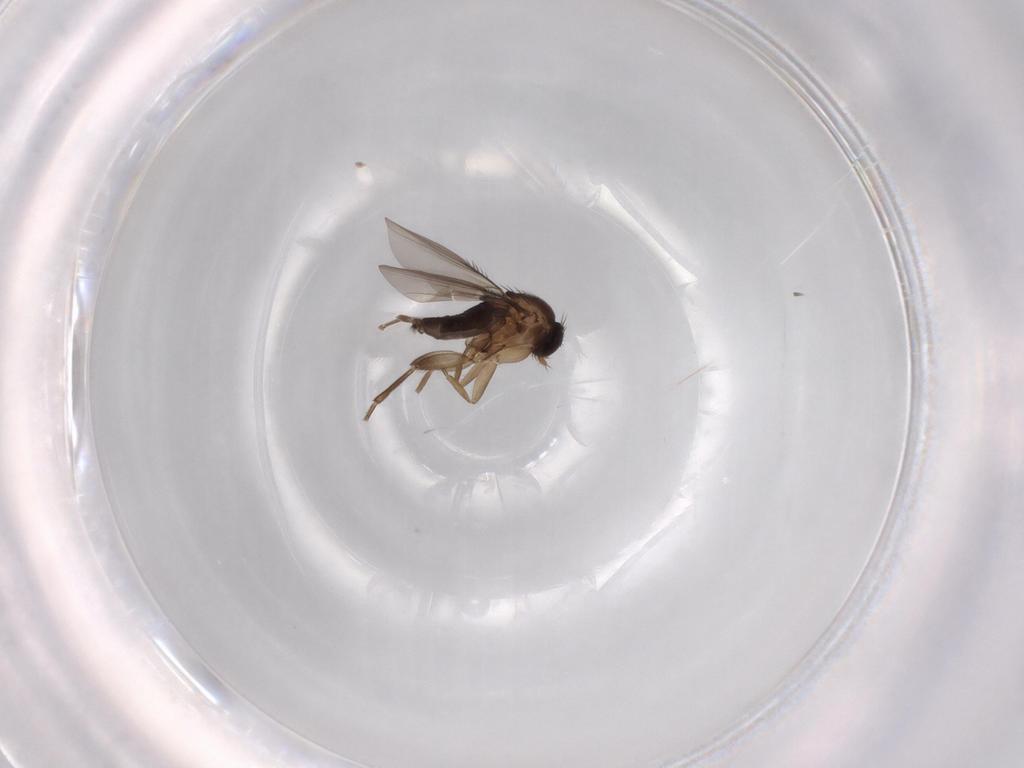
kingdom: Animalia
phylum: Arthropoda
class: Insecta
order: Diptera
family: Phoridae
